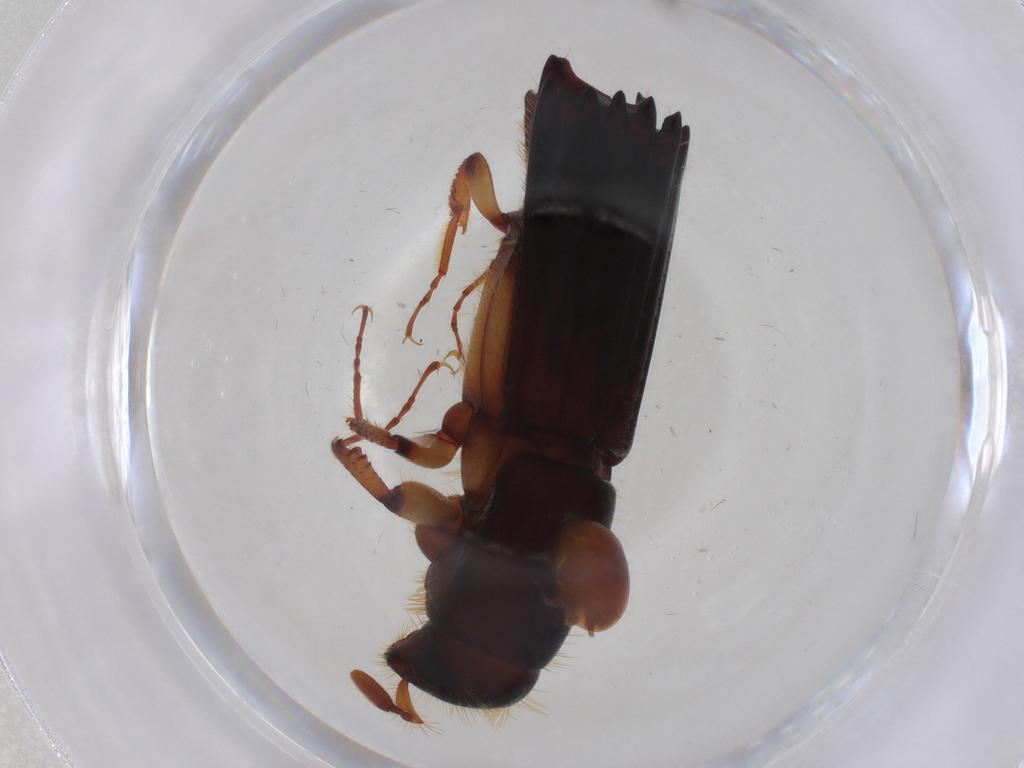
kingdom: Animalia
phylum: Arthropoda
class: Insecta
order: Coleoptera
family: Curculionidae
